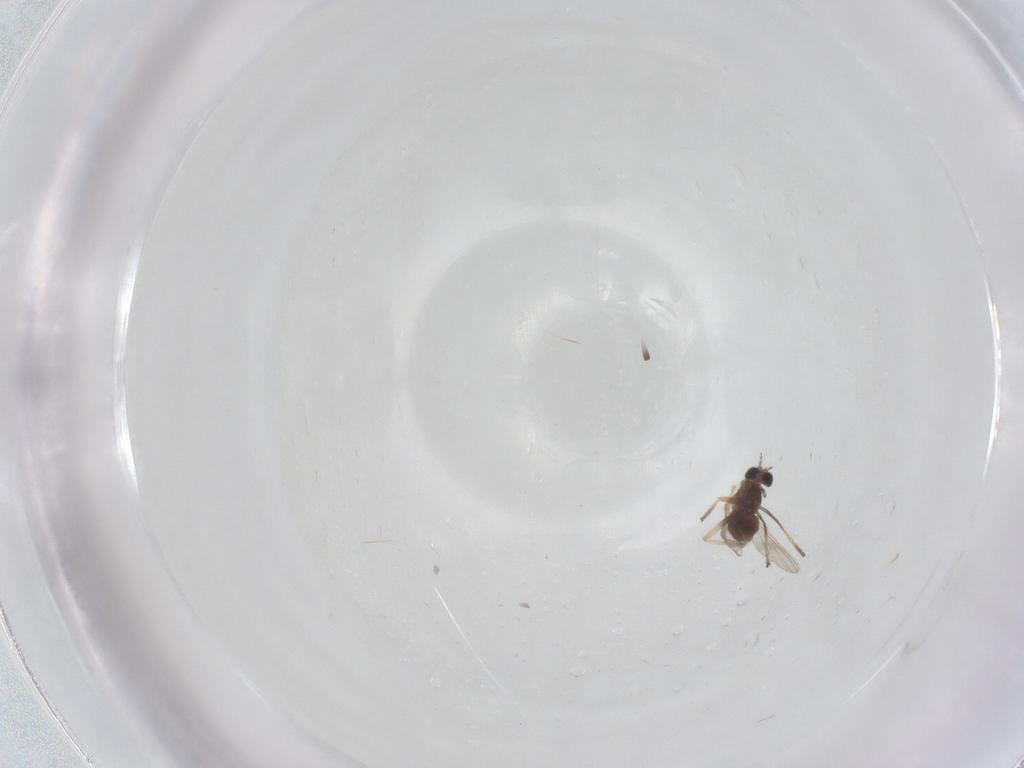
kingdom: Animalia
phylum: Arthropoda
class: Insecta
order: Diptera
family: Chironomidae
